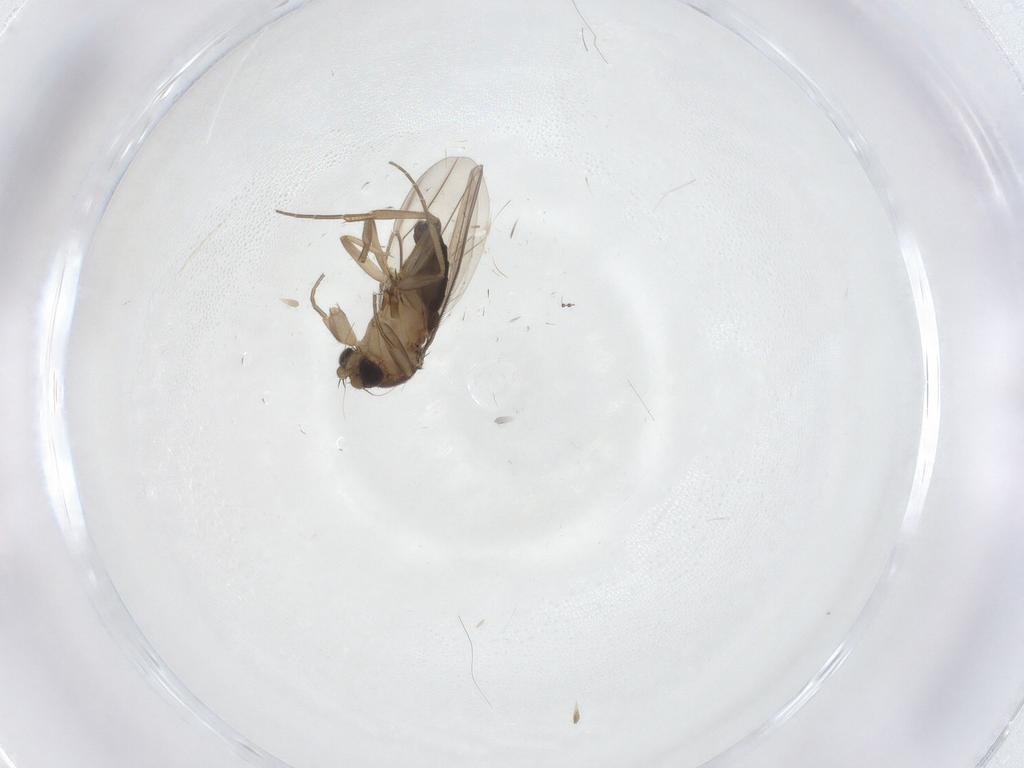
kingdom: Animalia
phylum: Arthropoda
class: Insecta
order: Diptera
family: Phoridae
